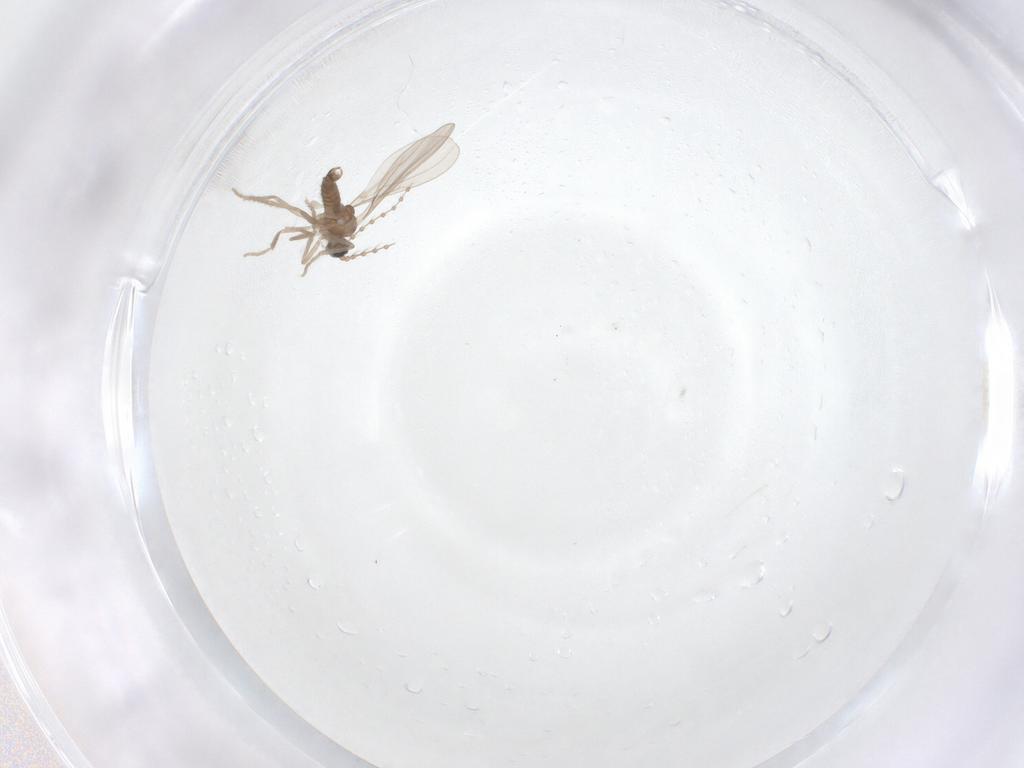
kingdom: Animalia
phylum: Arthropoda
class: Insecta
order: Diptera
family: Cecidomyiidae
